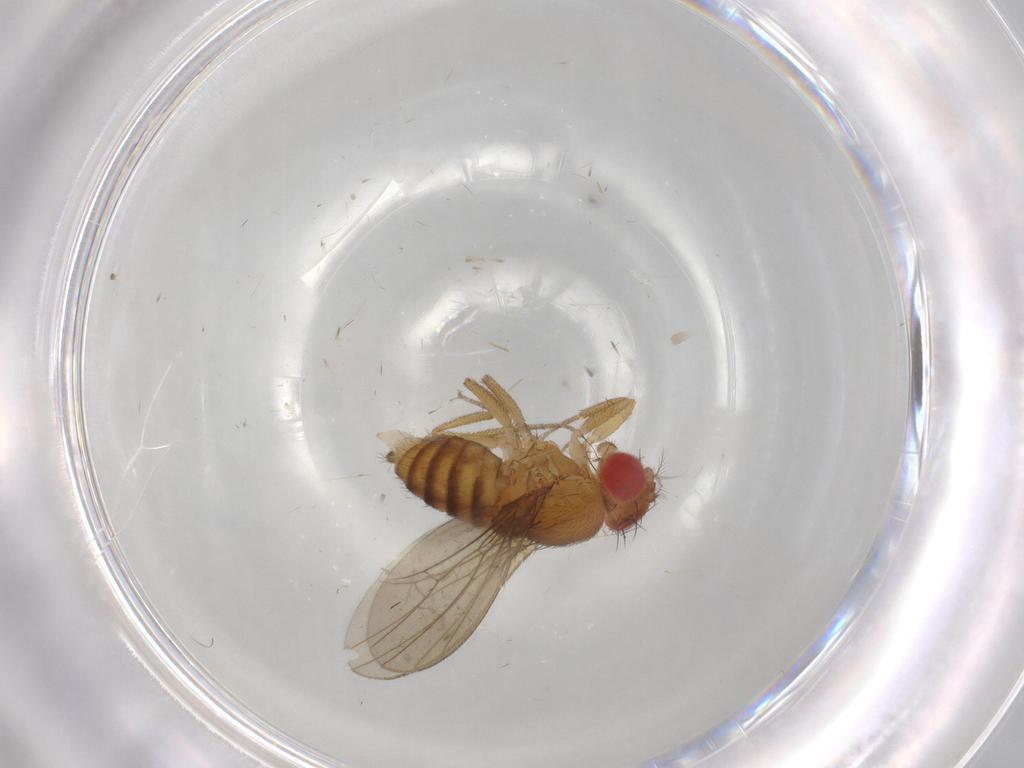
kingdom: Animalia
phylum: Arthropoda
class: Insecta
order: Diptera
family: Drosophilidae
